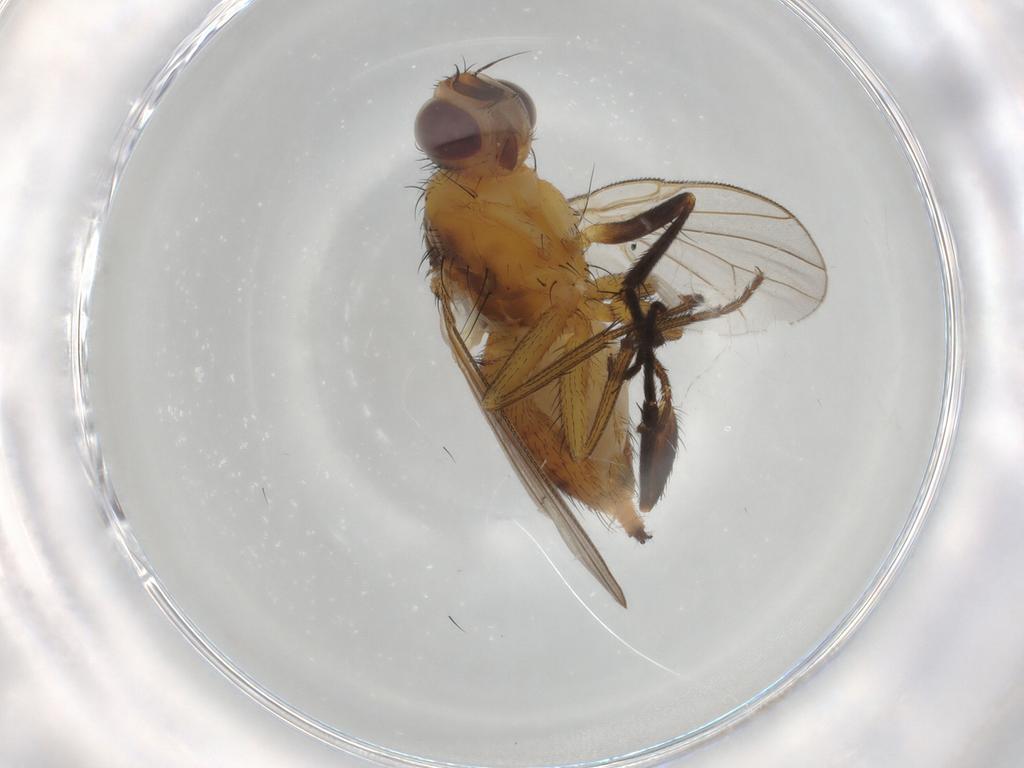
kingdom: Animalia
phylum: Arthropoda
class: Insecta
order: Diptera
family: Muscidae
